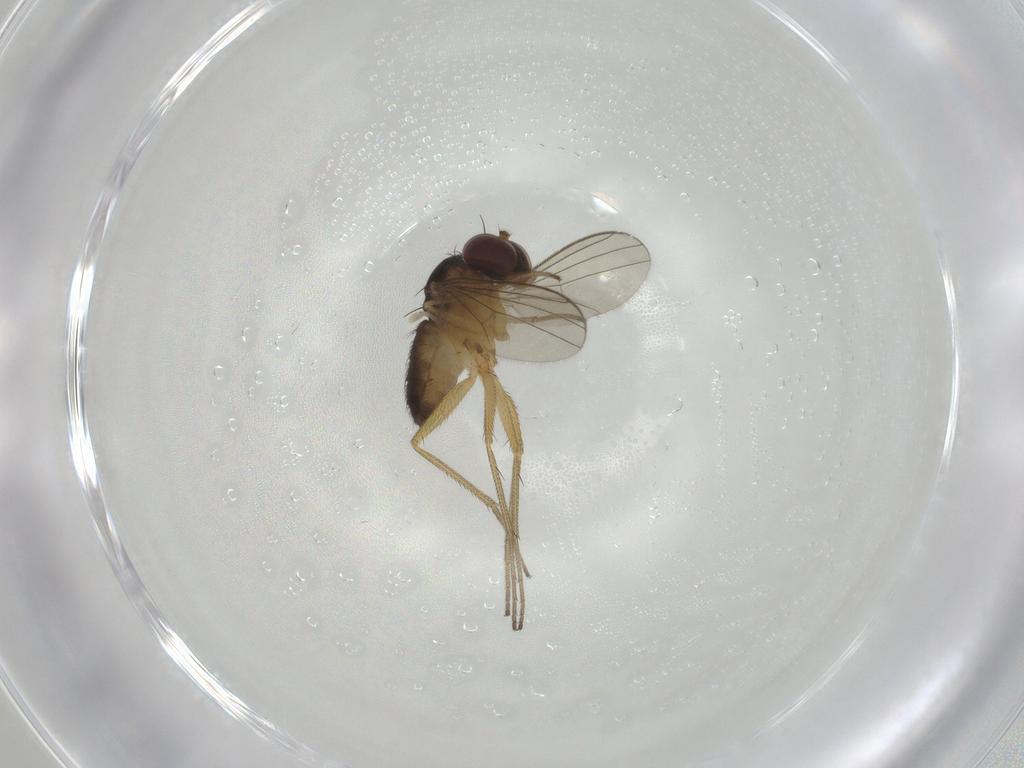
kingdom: Animalia
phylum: Arthropoda
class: Insecta
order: Diptera
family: Dolichopodidae
